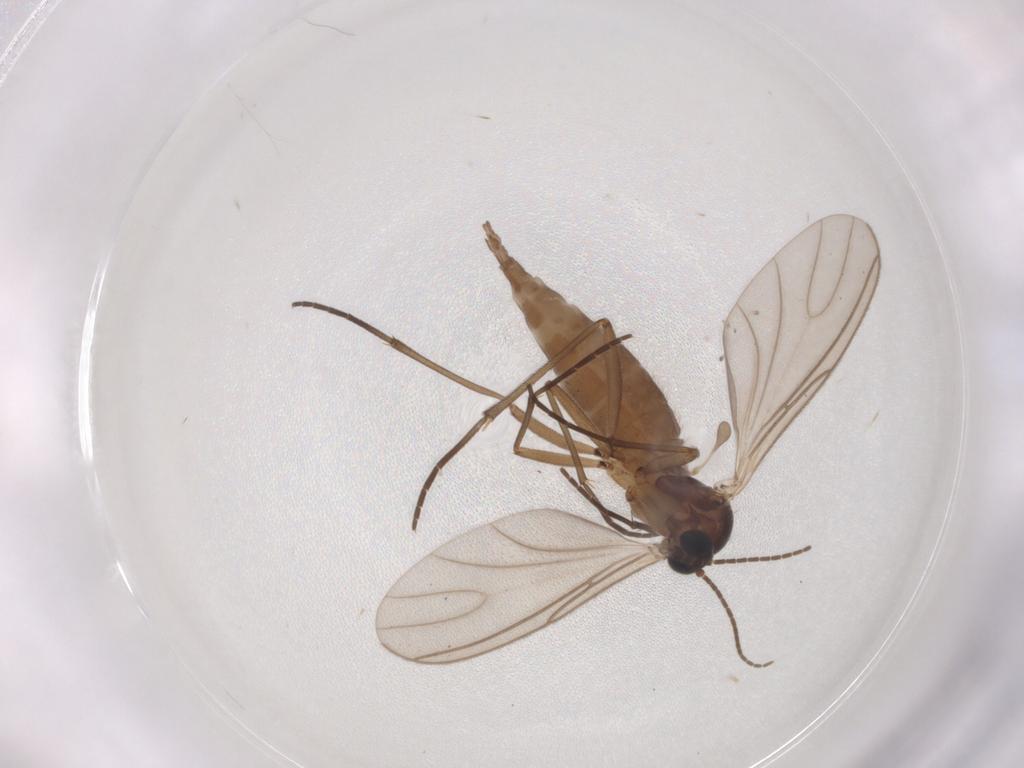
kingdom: Animalia
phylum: Arthropoda
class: Insecta
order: Diptera
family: Sciaridae
